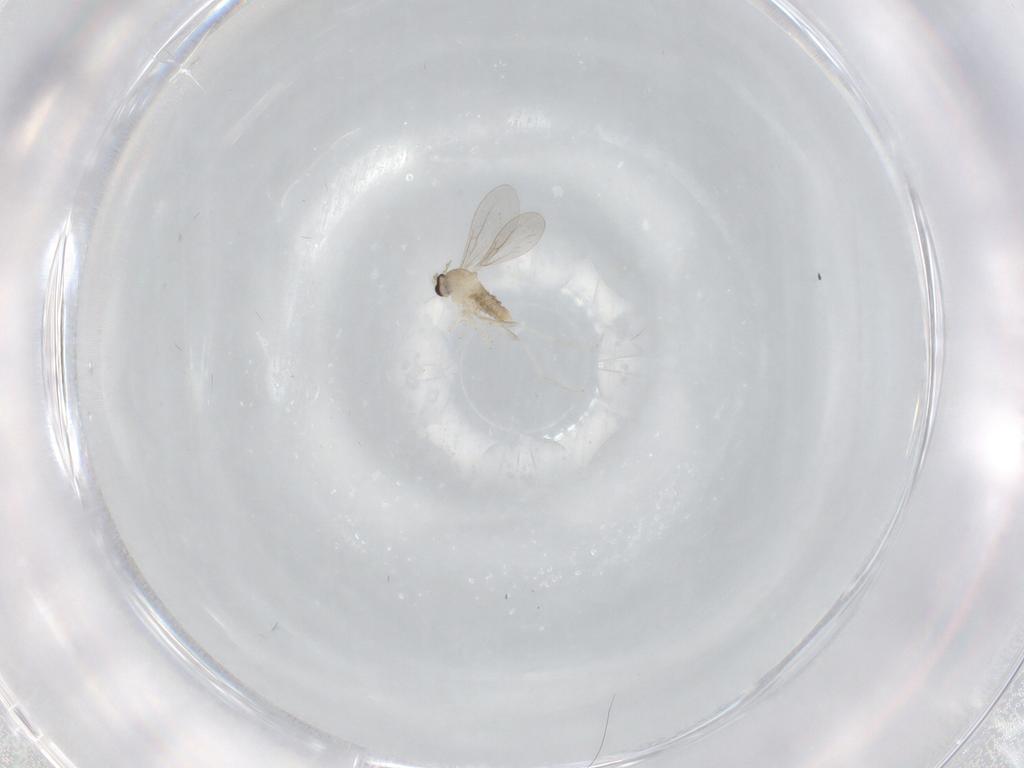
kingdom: Animalia
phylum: Arthropoda
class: Insecta
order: Diptera
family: Cecidomyiidae
